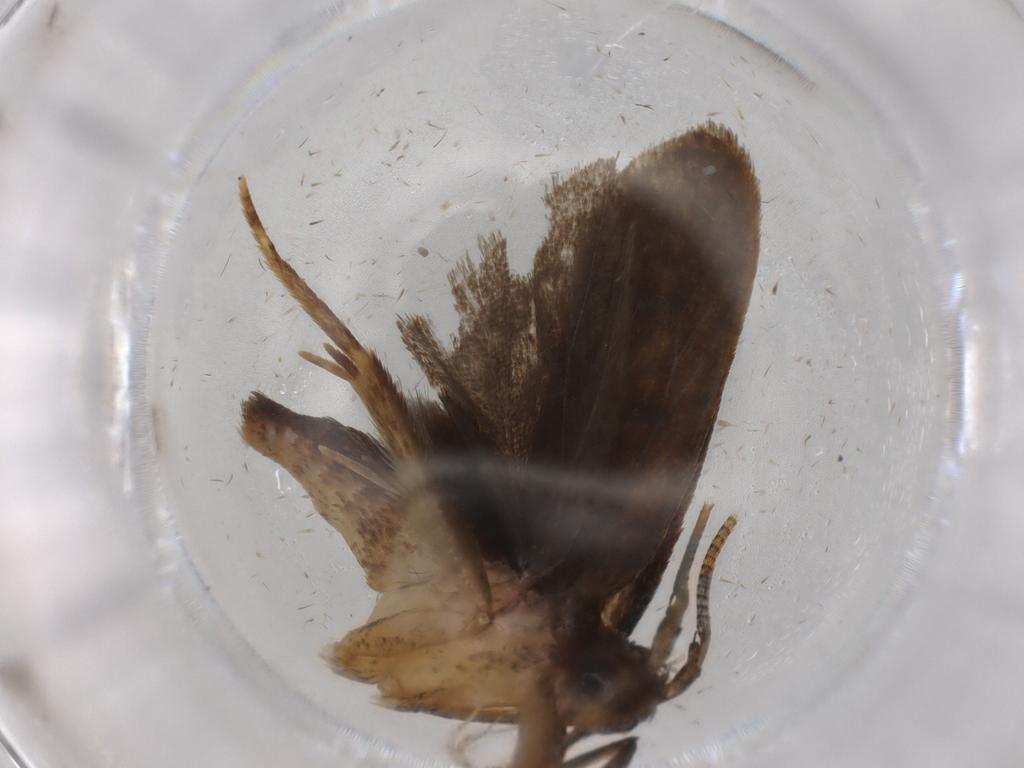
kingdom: Animalia
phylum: Arthropoda
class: Insecta
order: Lepidoptera
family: Autostichidae
